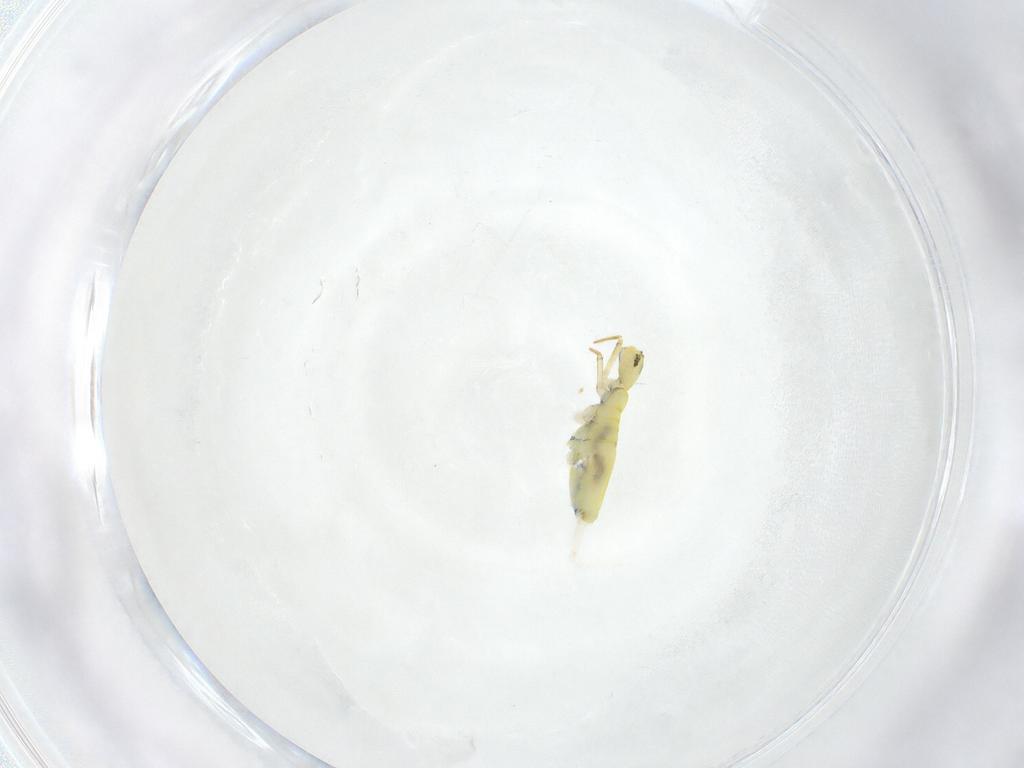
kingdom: Animalia
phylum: Arthropoda
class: Collembola
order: Entomobryomorpha
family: Paronellidae
